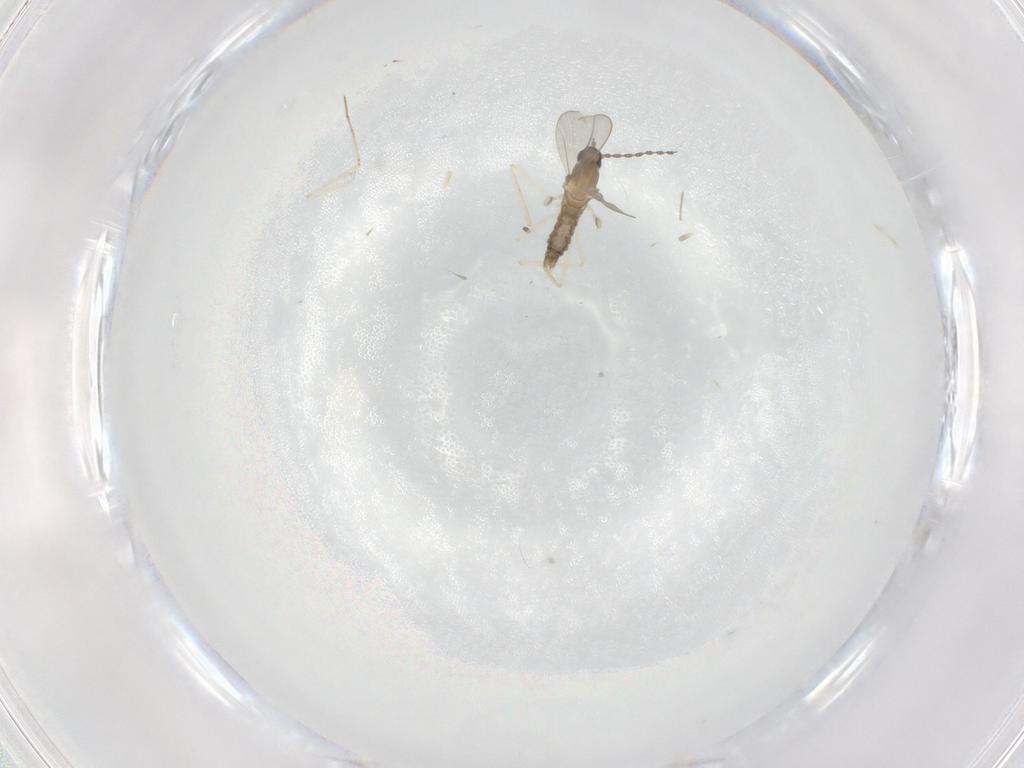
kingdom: Animalia
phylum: Arthropoda
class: Insecta
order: Diptera
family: Cecidomyiidae
